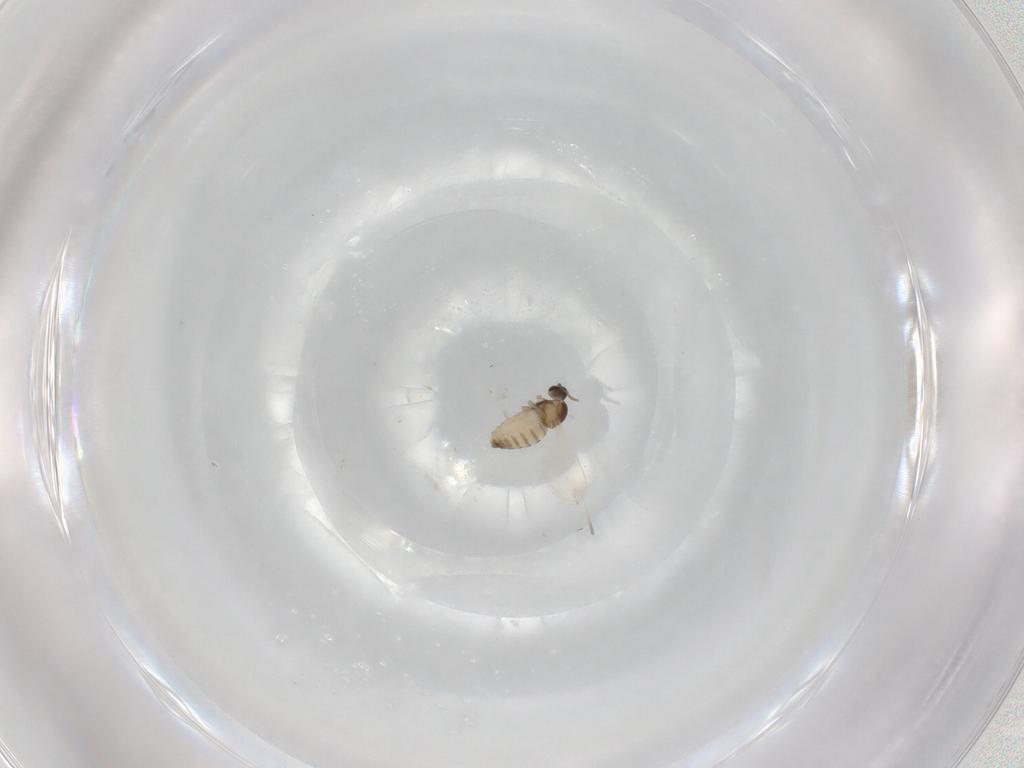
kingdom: Animalia
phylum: Arthropoda
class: Insecta
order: Diptera
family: Cecidomyiidae
